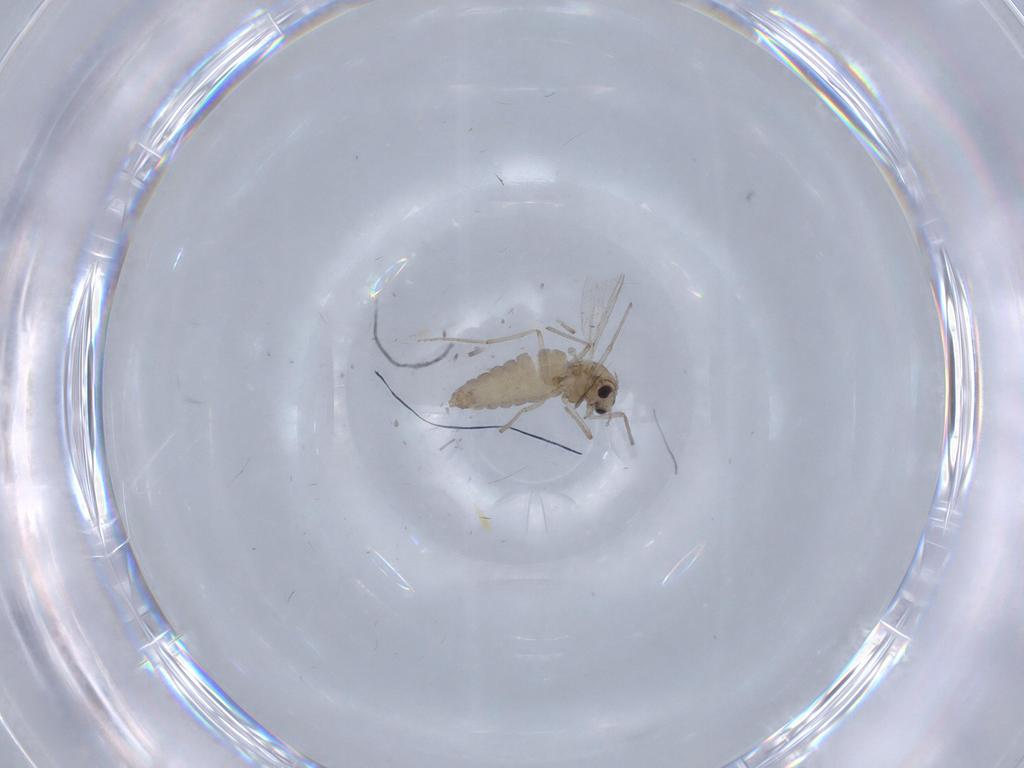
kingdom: Animalia
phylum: Arthropoda
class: Insecta
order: Diptera
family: Chironomidae
